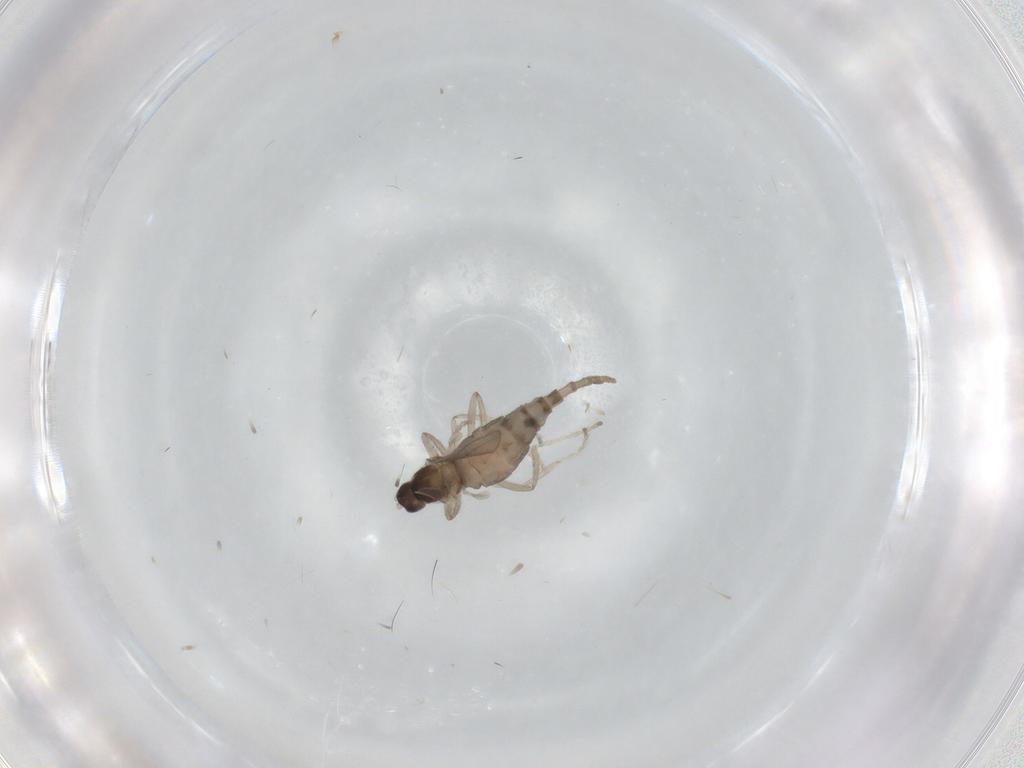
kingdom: Animalia
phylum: Arthropoda
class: Insecta
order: Diptera
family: Cecidomyiidae
